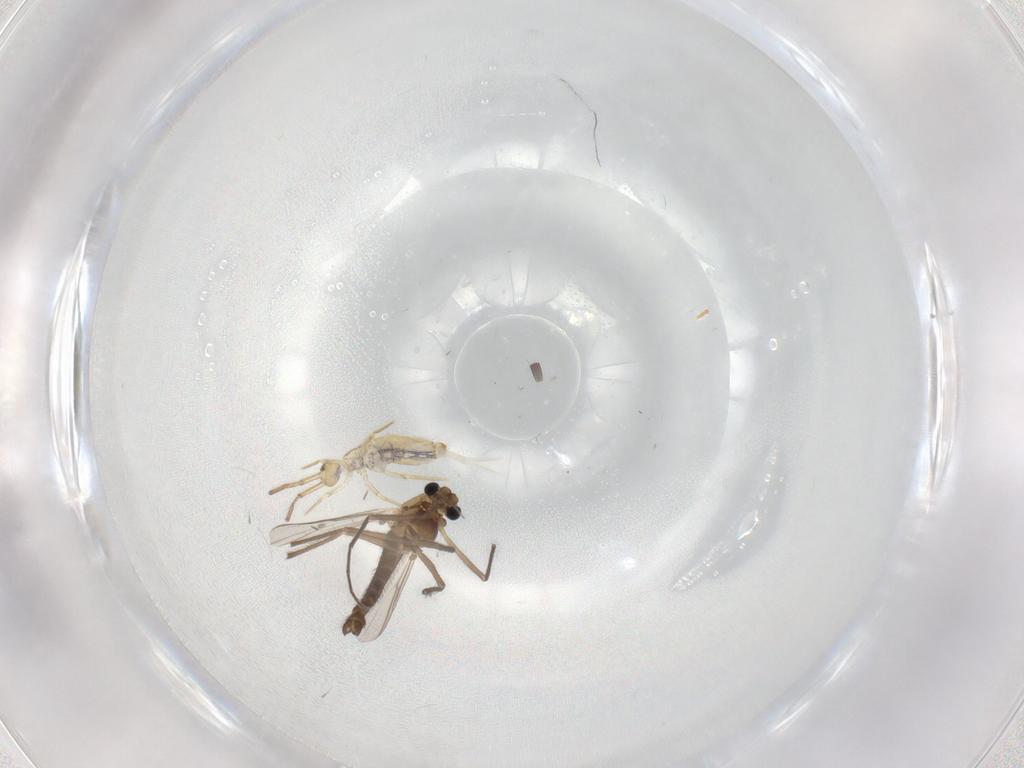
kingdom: Animalia
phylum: Arthropoda
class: Insecta
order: Diptera
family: Chironomidae
